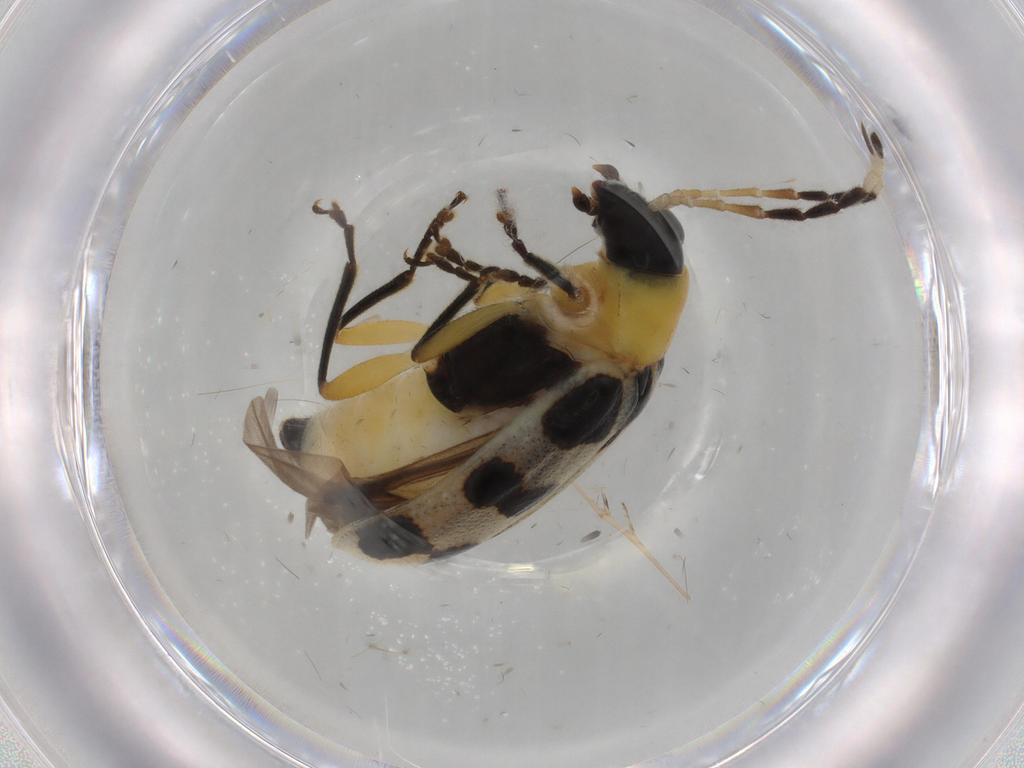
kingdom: Animalia
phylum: Arthropoda
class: Insecta
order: Coleoptera
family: Chrysomelidae
